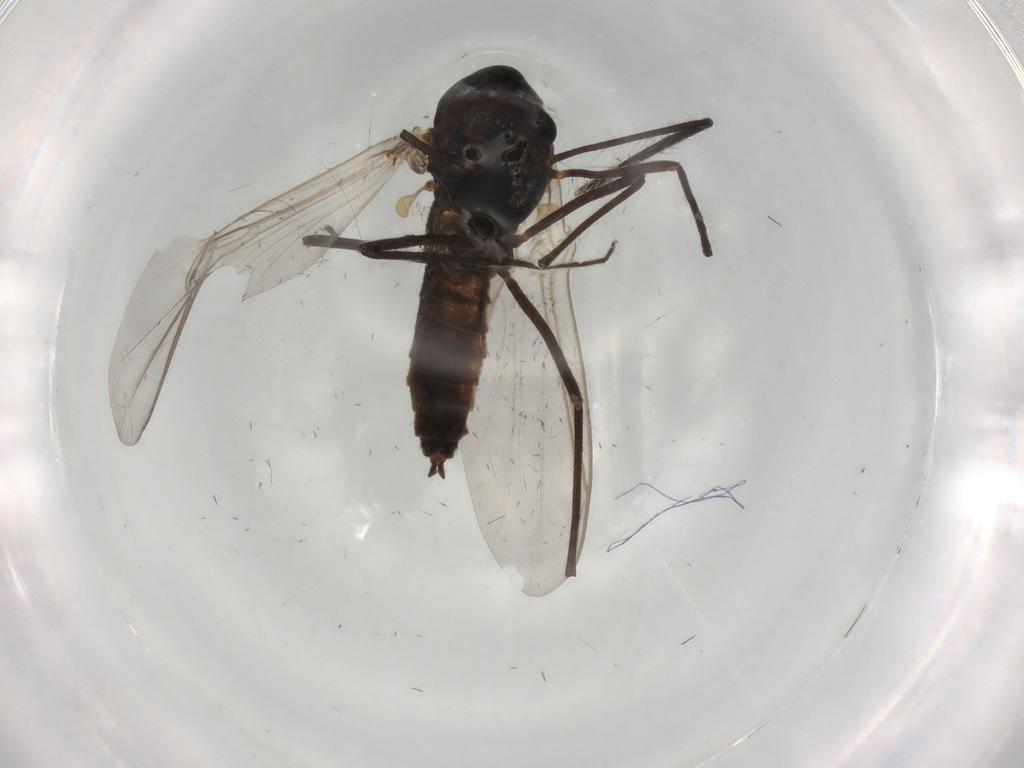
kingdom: Animalia
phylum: Arthropoda
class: Insecta
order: Diptera
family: Chironomidae
